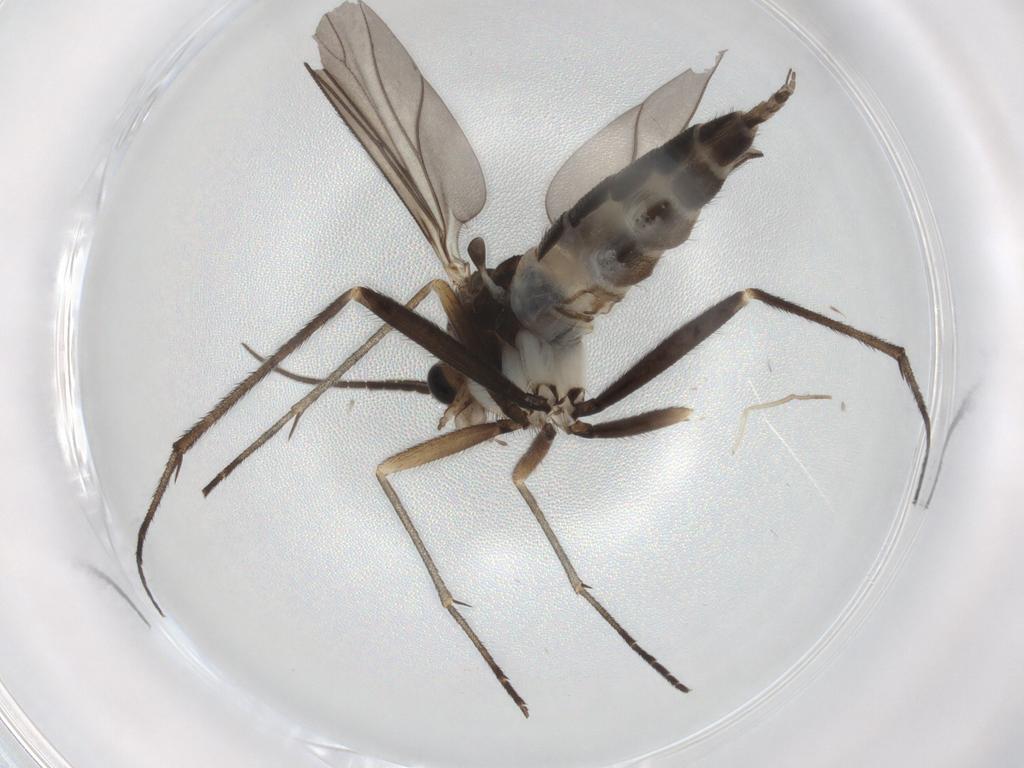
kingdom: Animalia
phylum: Arthropoda
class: Insecta
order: Diptera
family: Sciaridae
